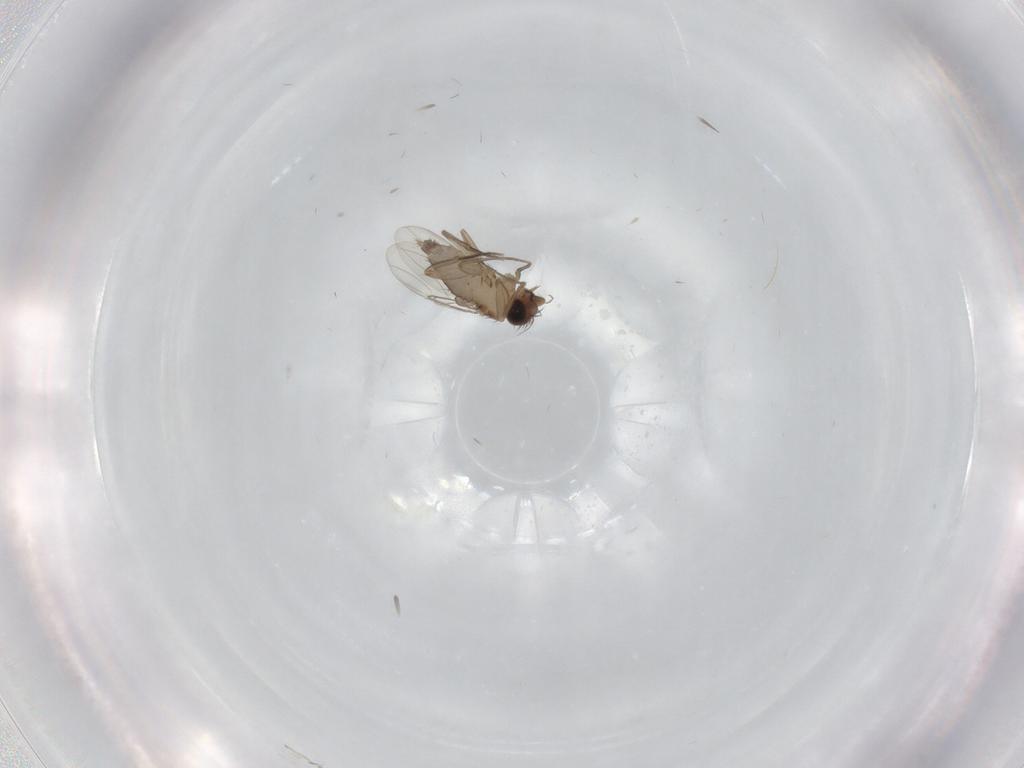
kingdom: Animalia
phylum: Arthropoda
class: Insecta
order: Diptera
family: Phoridae
